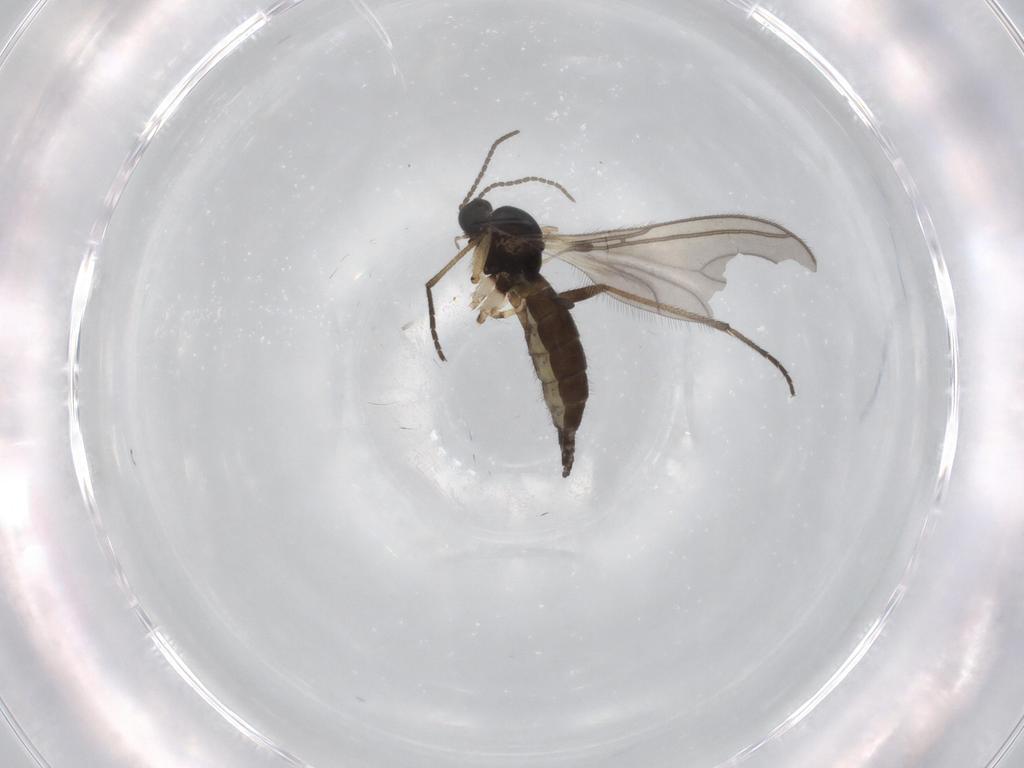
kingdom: Animalia
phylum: Arthropoda
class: Insecta
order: Diptera
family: Sciaridae
